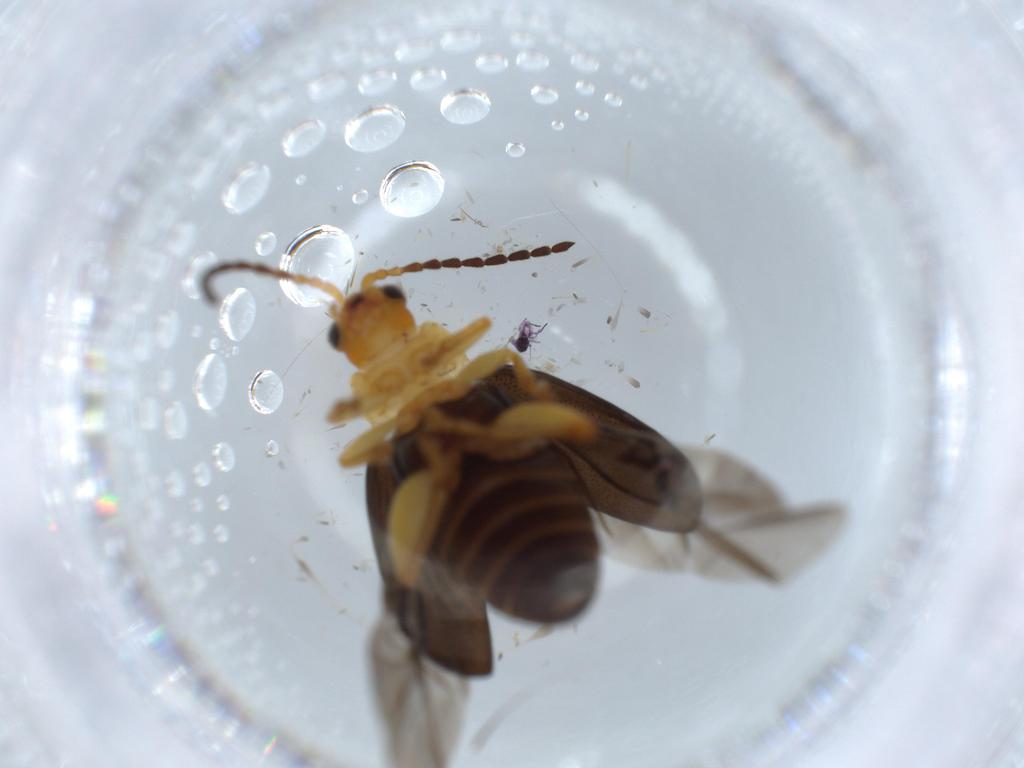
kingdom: Animalia
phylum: Arthropoda
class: Insecta
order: Coleoptera
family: Chrysomelidae
